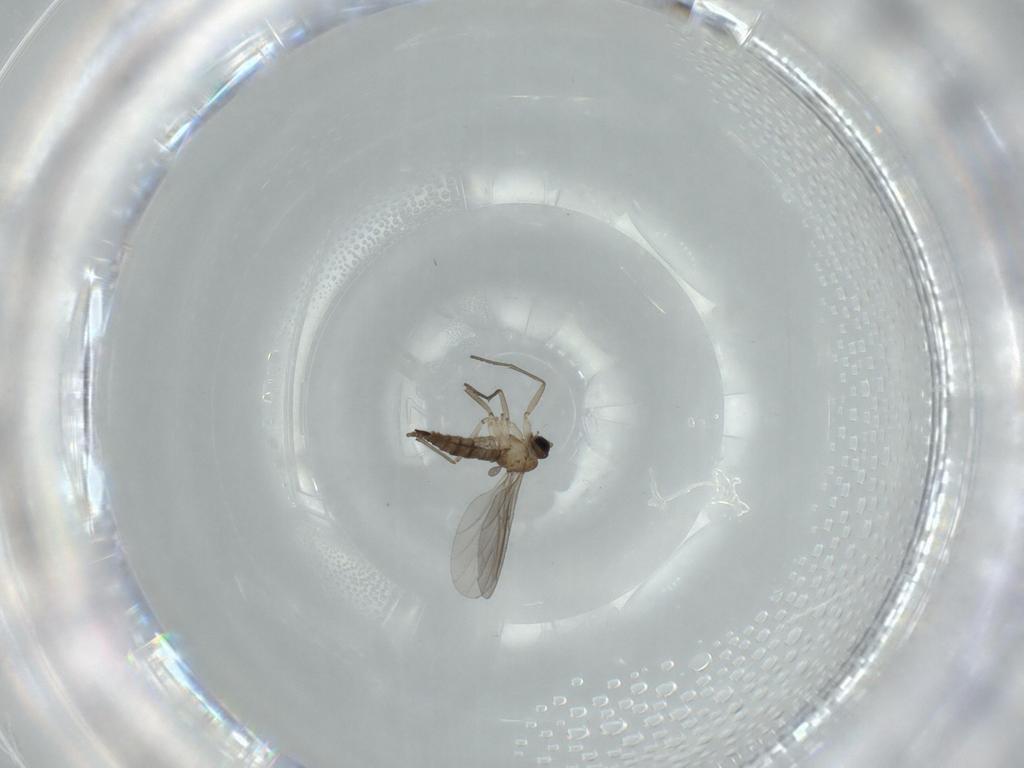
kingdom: Animalia
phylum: Arthropoda
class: Insecta
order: Diptera
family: Sciaridae
